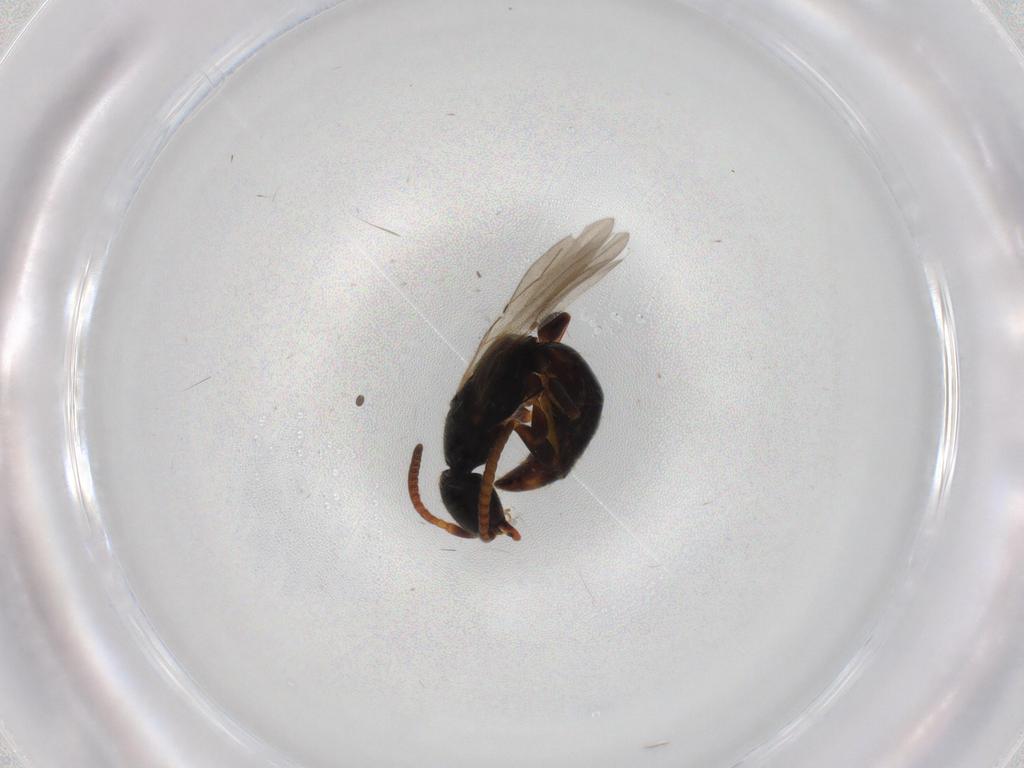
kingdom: Animalia
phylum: Arthropoda
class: Insecta
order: Hymenoptera
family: Bethylidae
